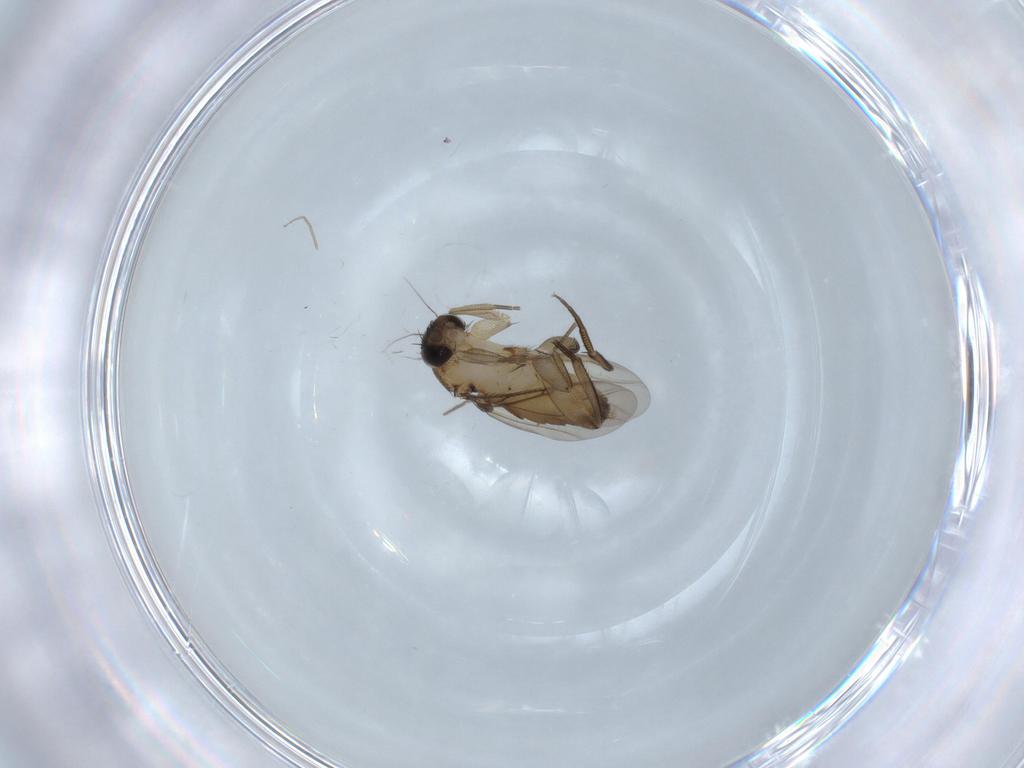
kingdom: Animalia
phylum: Arthropoda
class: Insecta
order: Diptera
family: Phoridae
